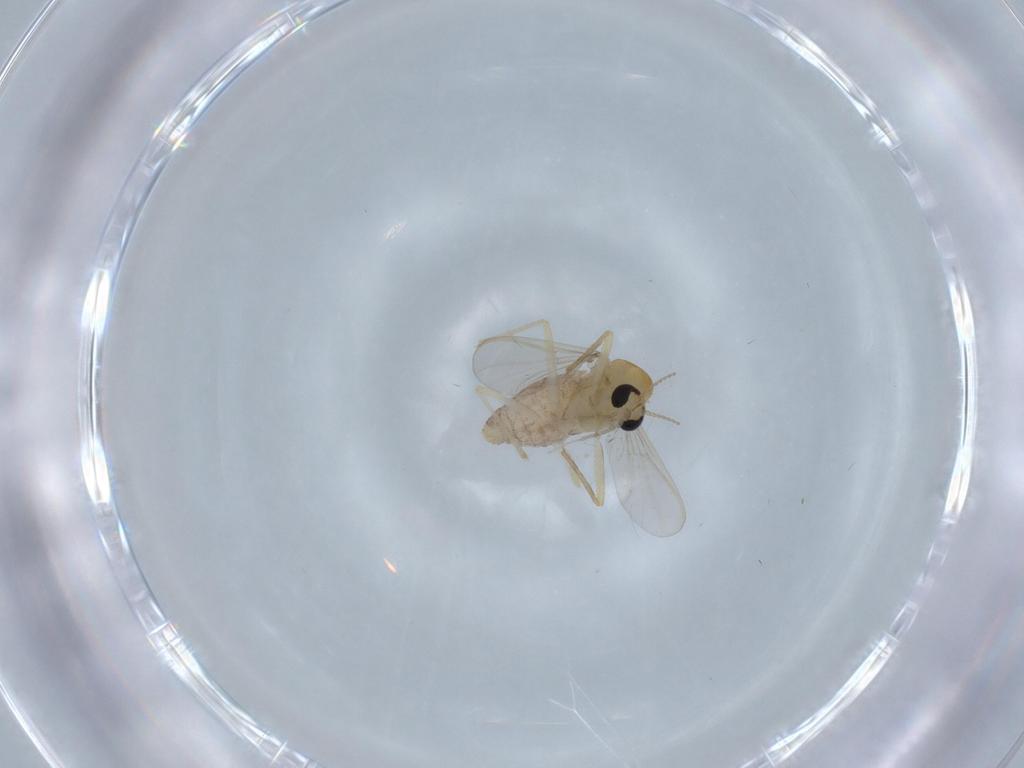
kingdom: Animalia
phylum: Arthropoda
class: Insecta
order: Diptera
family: Chironomidae
